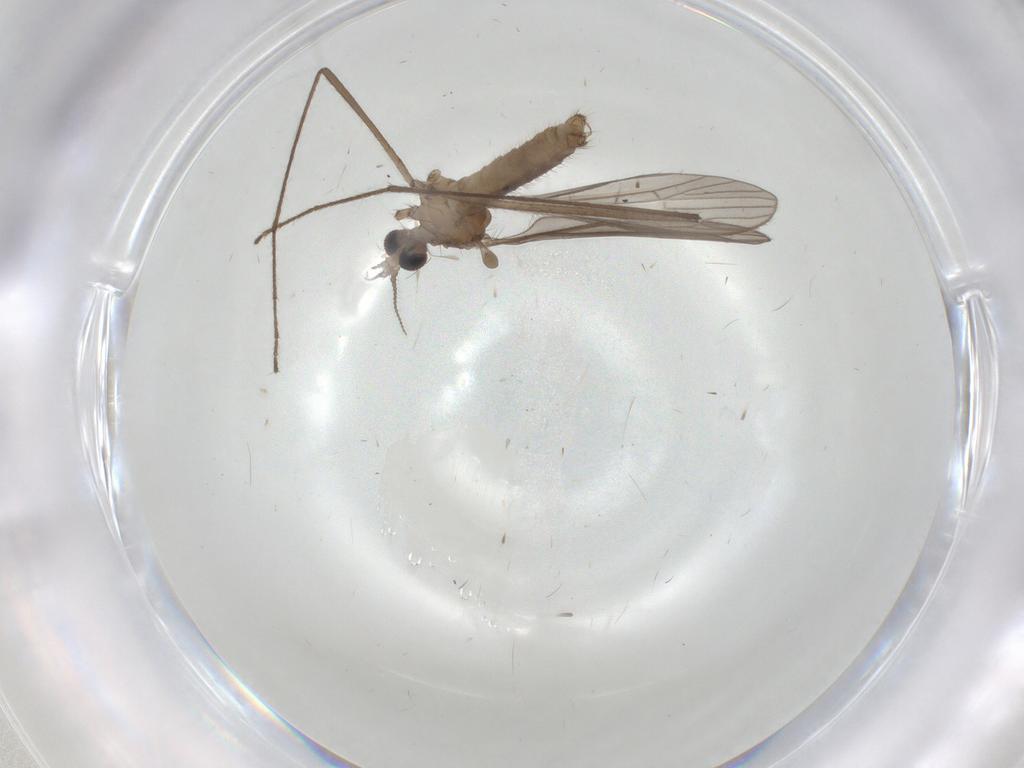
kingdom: Animalia
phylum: Arthropoda
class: Insecta
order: Diptera
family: Limoniidae
